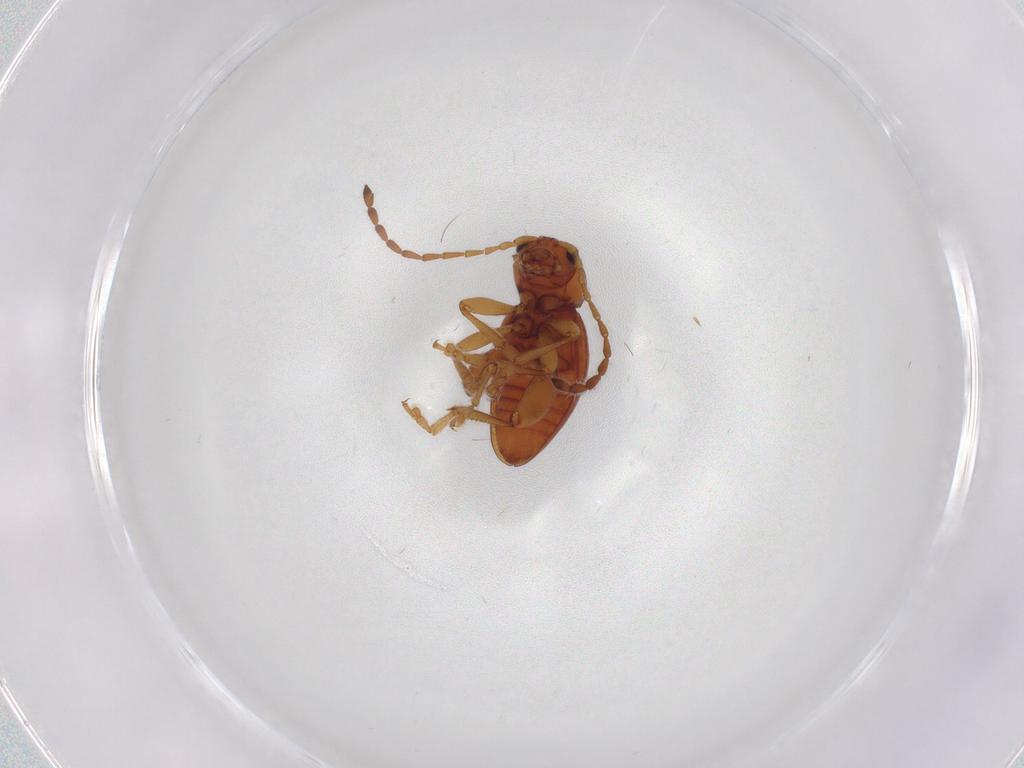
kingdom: Animalia
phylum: Arthropoda
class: Insecta
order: Coleoptera
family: Chrysomelidae
